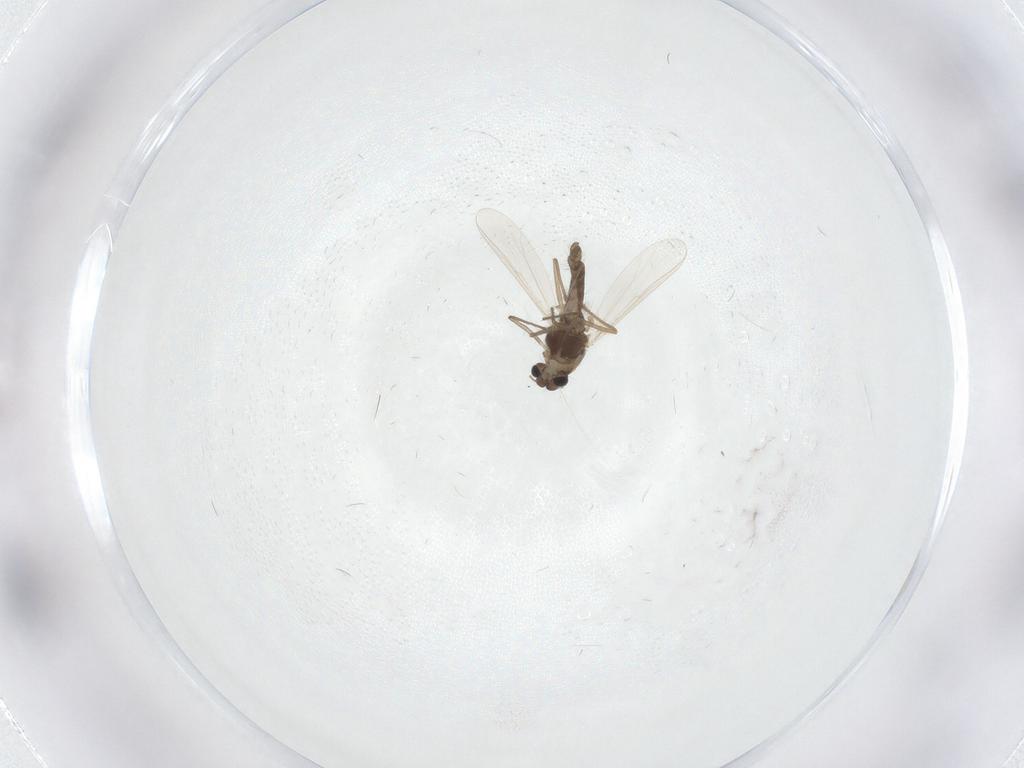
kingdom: Animalia
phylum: Arthropoda
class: Insecta
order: Diptera
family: Chironomidae
